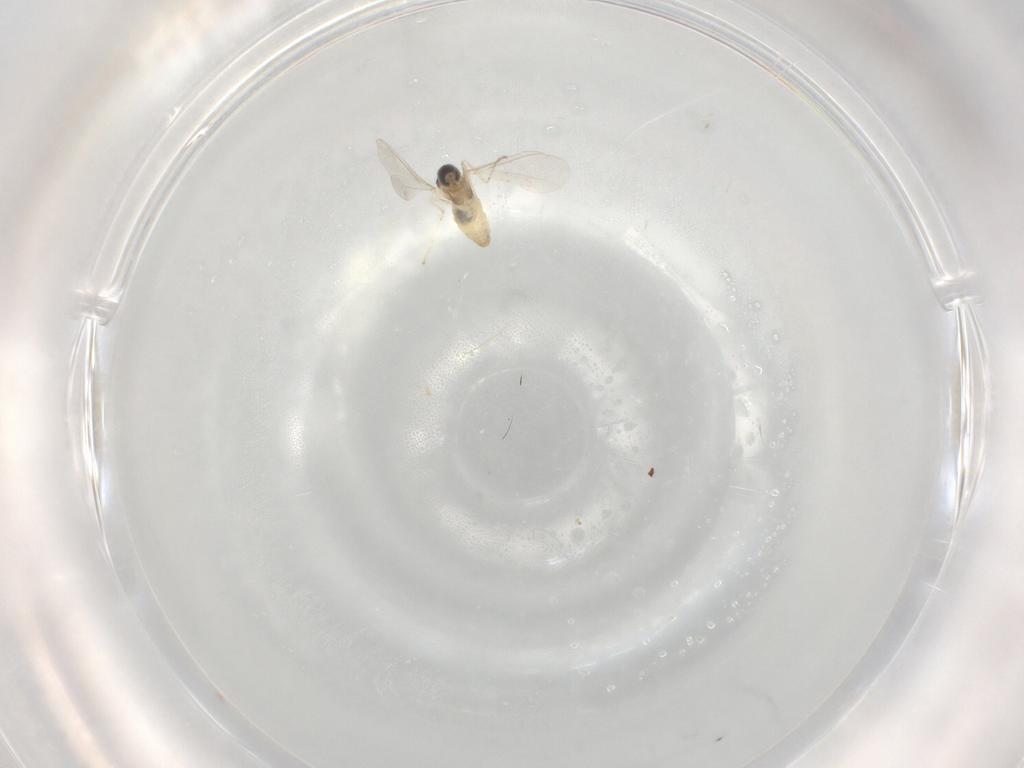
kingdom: Animalia
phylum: Arthropoda
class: Insecta
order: Diptera
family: Cecidomyiidae
